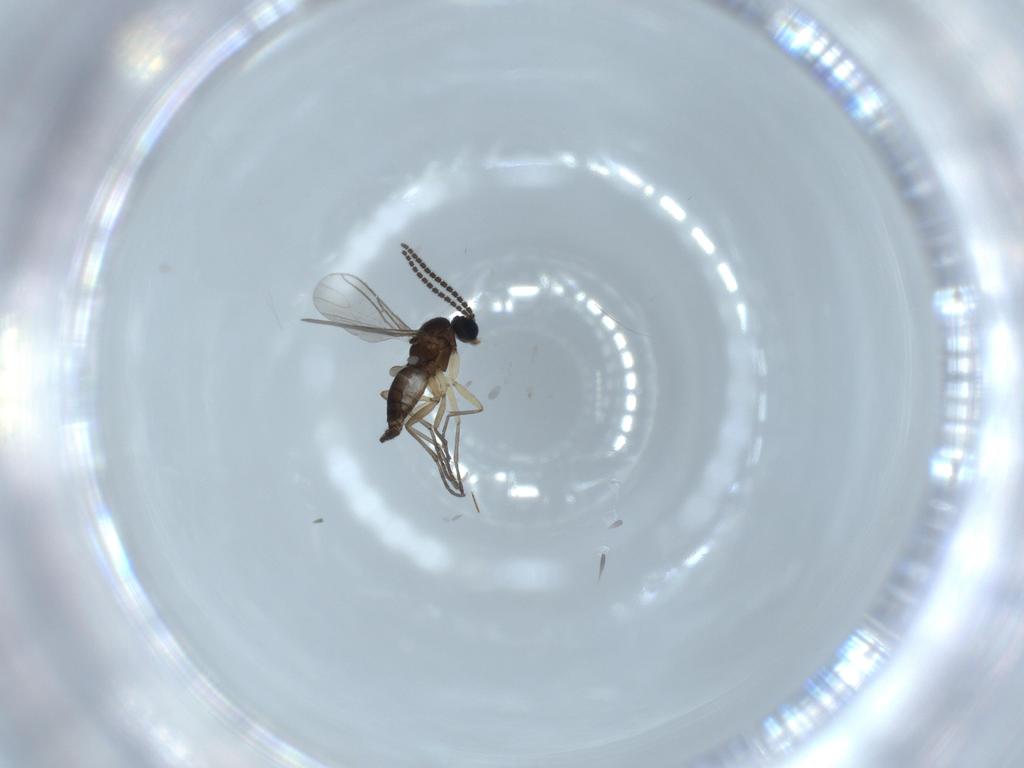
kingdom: Animalia
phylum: Arthropoda
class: Insecta
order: Diptera
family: Sciaridae
